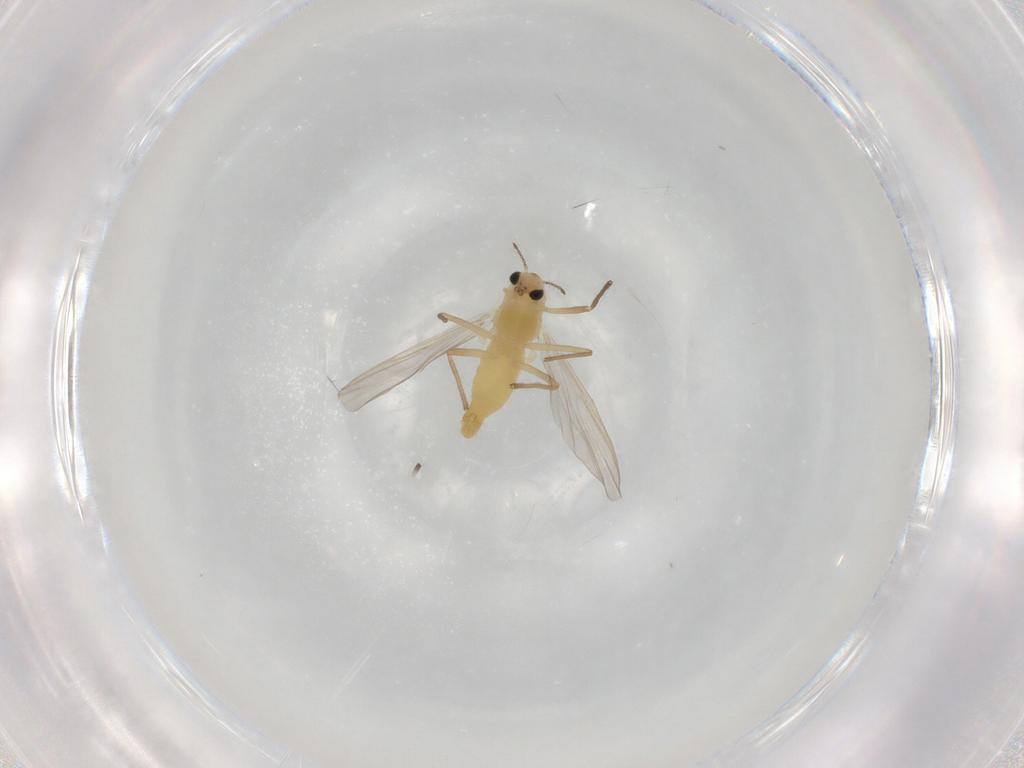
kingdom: Animalia
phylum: Arthropoda
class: Insecta
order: Diptera
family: Chironomidae
